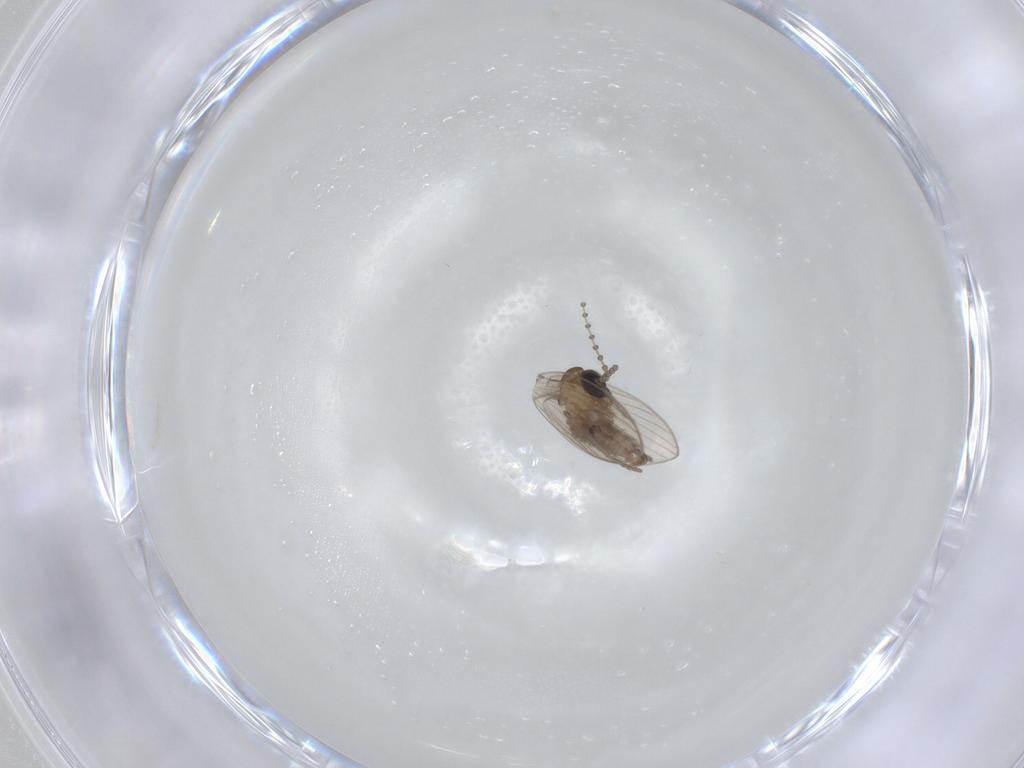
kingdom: Animalia
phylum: Arthropoda
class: Insecta
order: Diptera
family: Psychodidae
